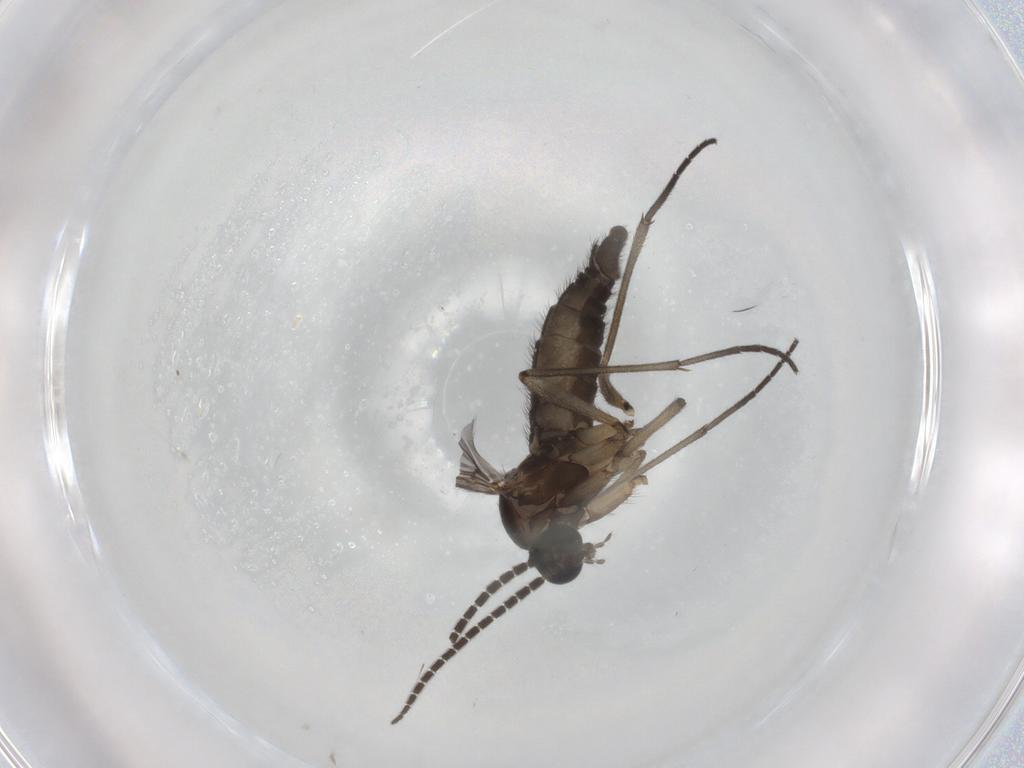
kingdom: Animalia
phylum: Arthropoda
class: Insecta
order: Diptera
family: Sciaridae
